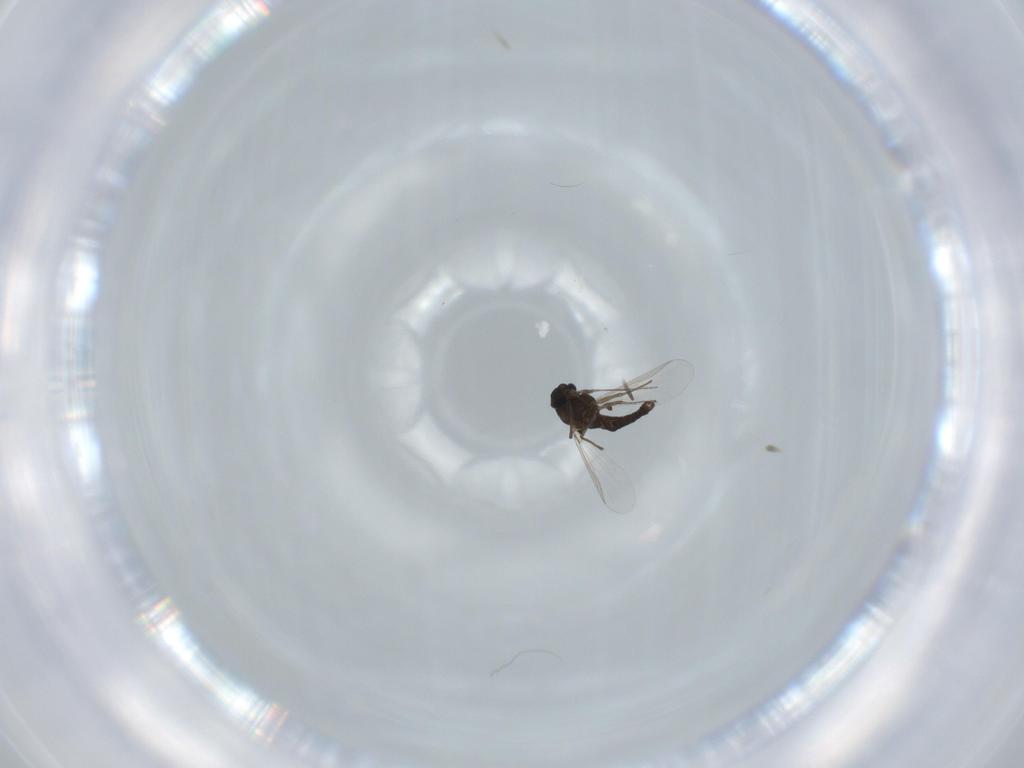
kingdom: Animalia
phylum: Arthropoda
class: Insecta
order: Diptera
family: Chironomidae
